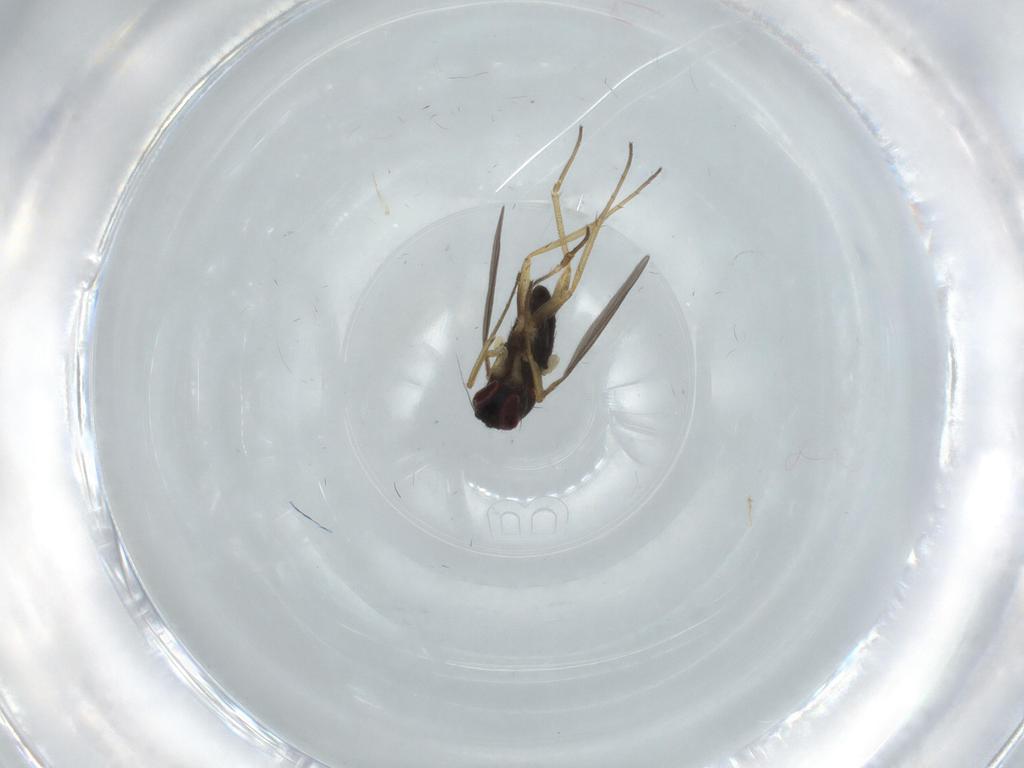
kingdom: Animalia
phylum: Arthropoda
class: Insecta
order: Diptera
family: Dolichopodidae
